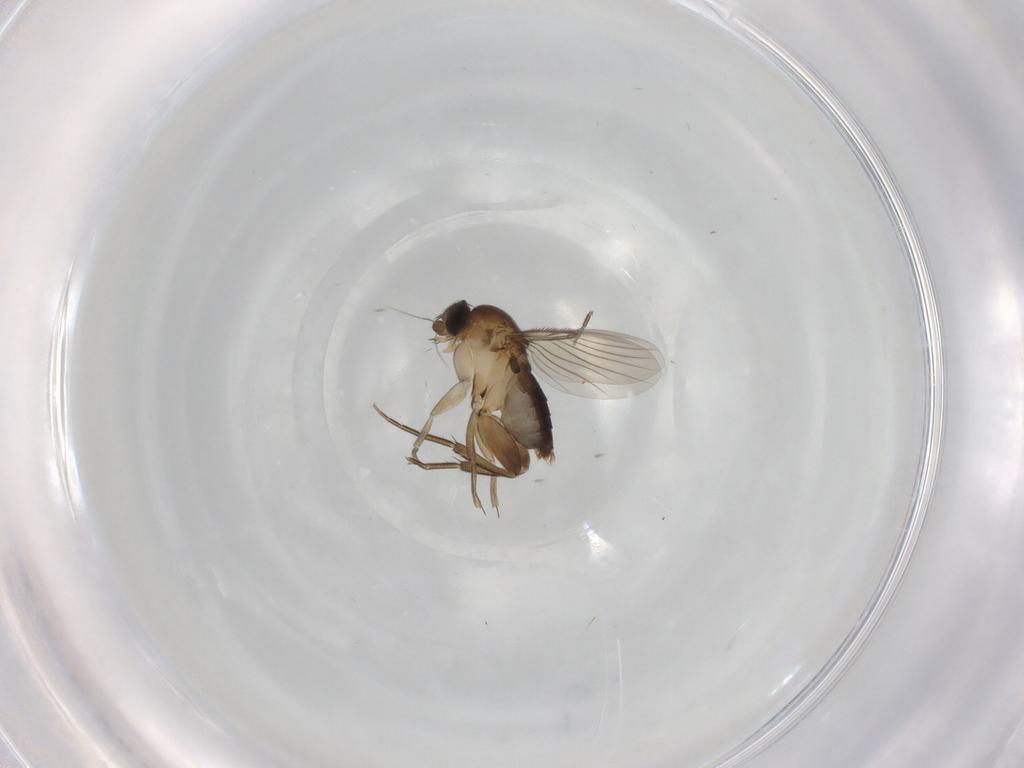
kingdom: Animalia
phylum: Arthropoda
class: Insecta
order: Diptera
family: Phoridae
